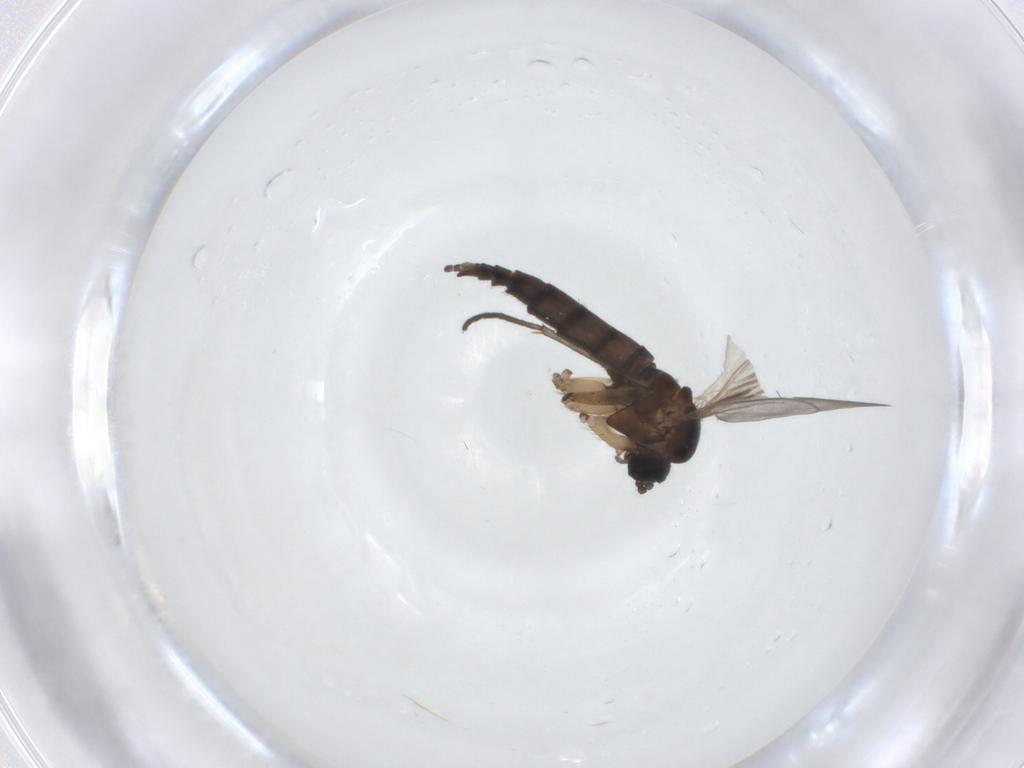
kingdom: Animalia
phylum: Arthropoda
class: Insecta
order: Diptera
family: Sciaridae
